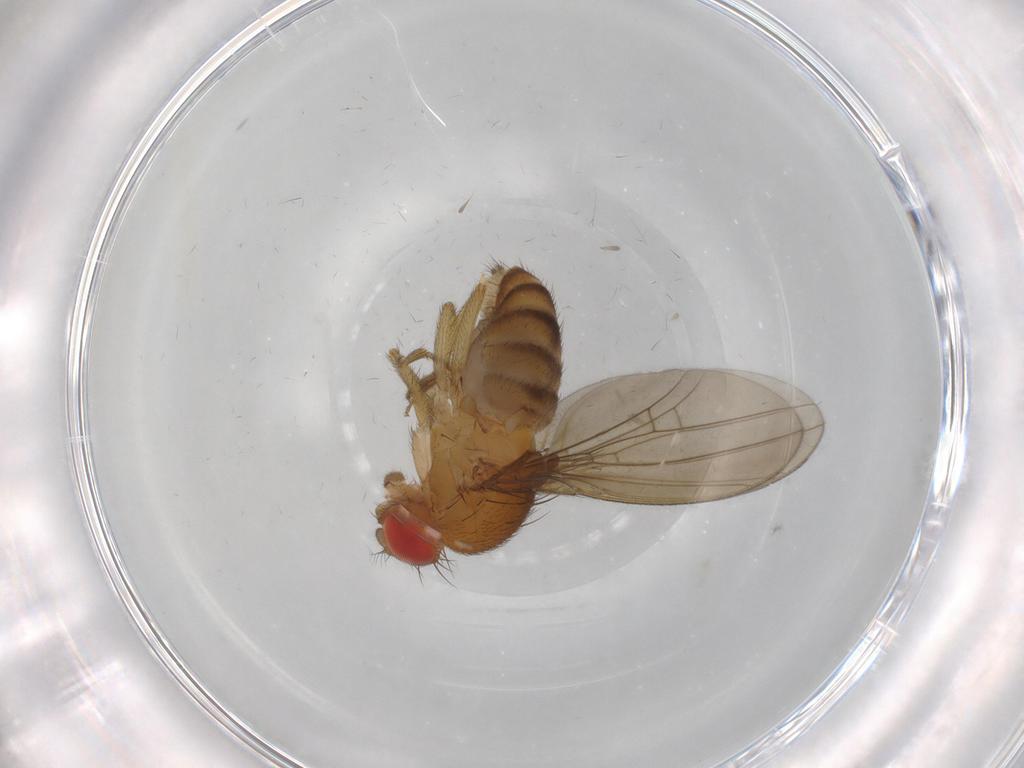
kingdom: Animalia
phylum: Arthropoda
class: Insecta
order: Diptera
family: Drosophilidae
